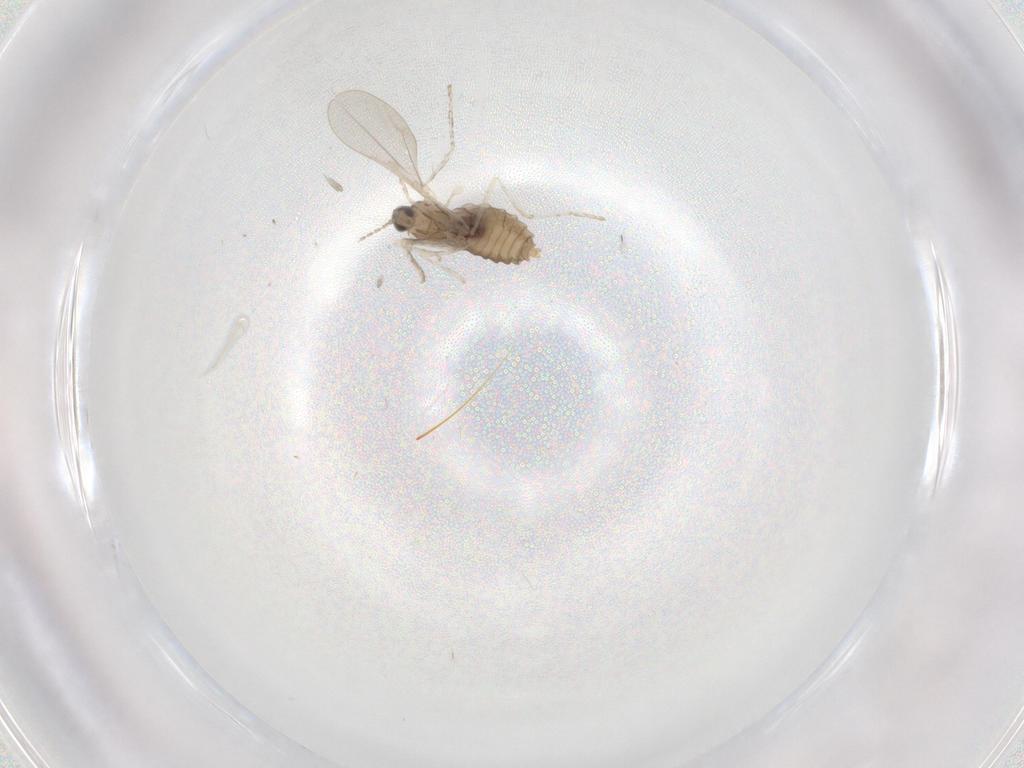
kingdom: Animalia
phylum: Arthropoda
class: Insecta
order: Diptera
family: Cecidomyiidae
